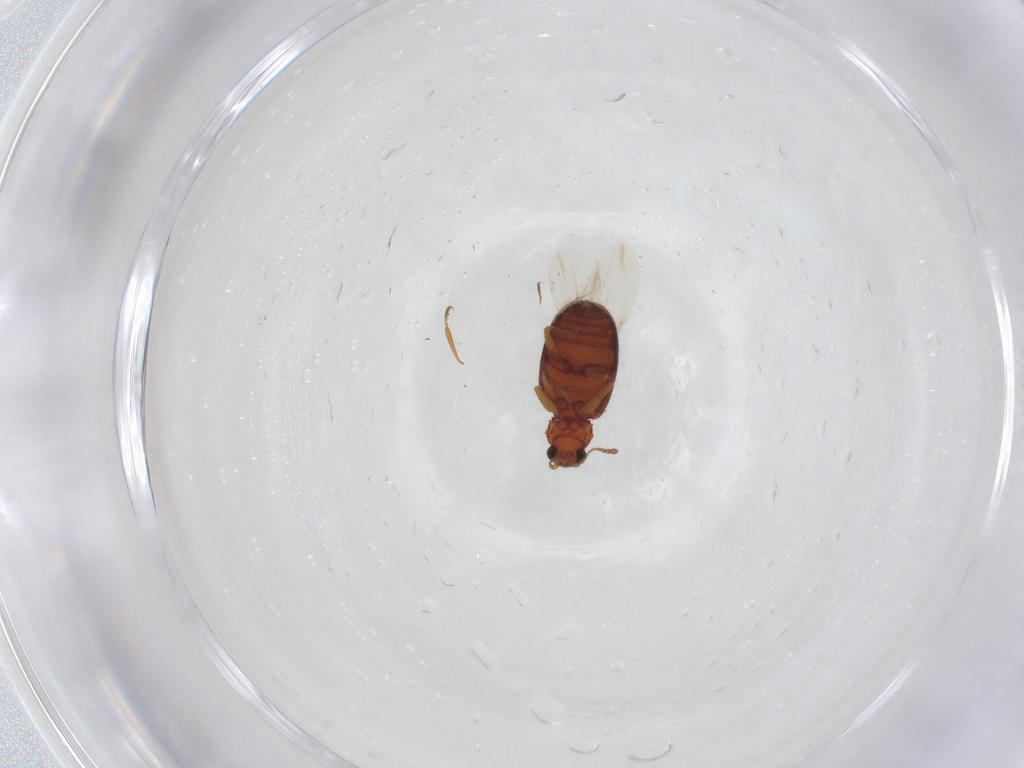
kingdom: Animalia
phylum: Arthropoda
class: Insecta
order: Coleoptera
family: Latridiidae
